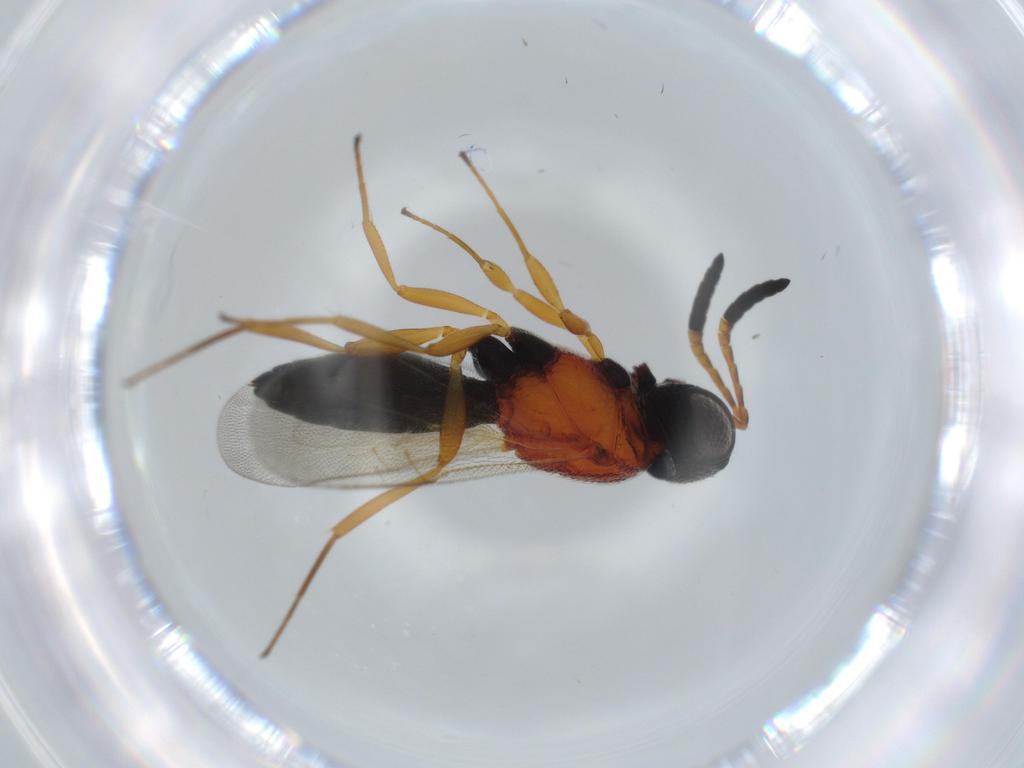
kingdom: Animalia
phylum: Arthropoda
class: Insecta
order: Hymenoptera
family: Scelionidae
